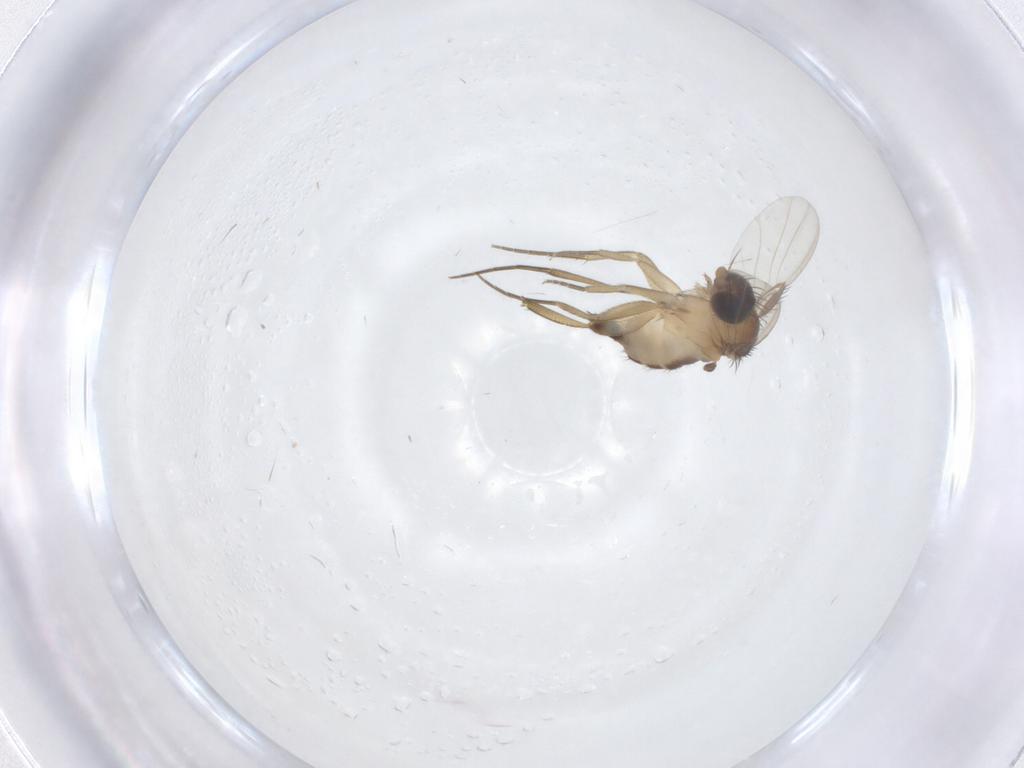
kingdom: Animalia
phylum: Arthropoda
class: Insecta
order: Diptera
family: Phoridae
